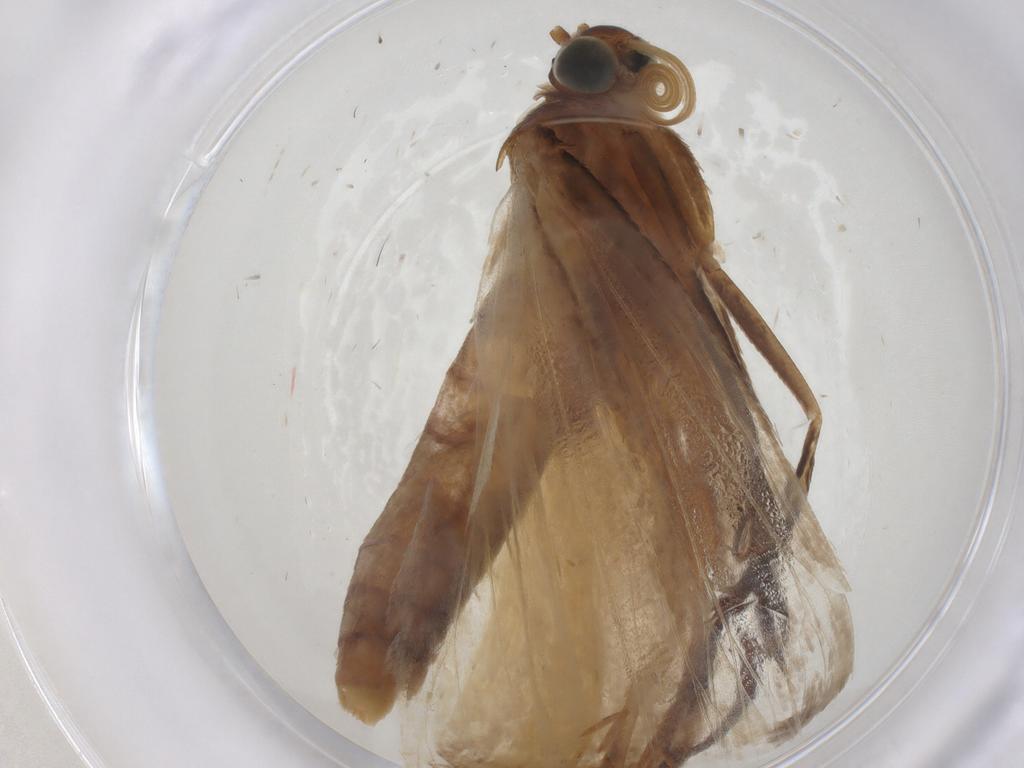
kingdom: Animalia
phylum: Arthropoda
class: Insecta
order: Lepidoptera
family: Crambidae
